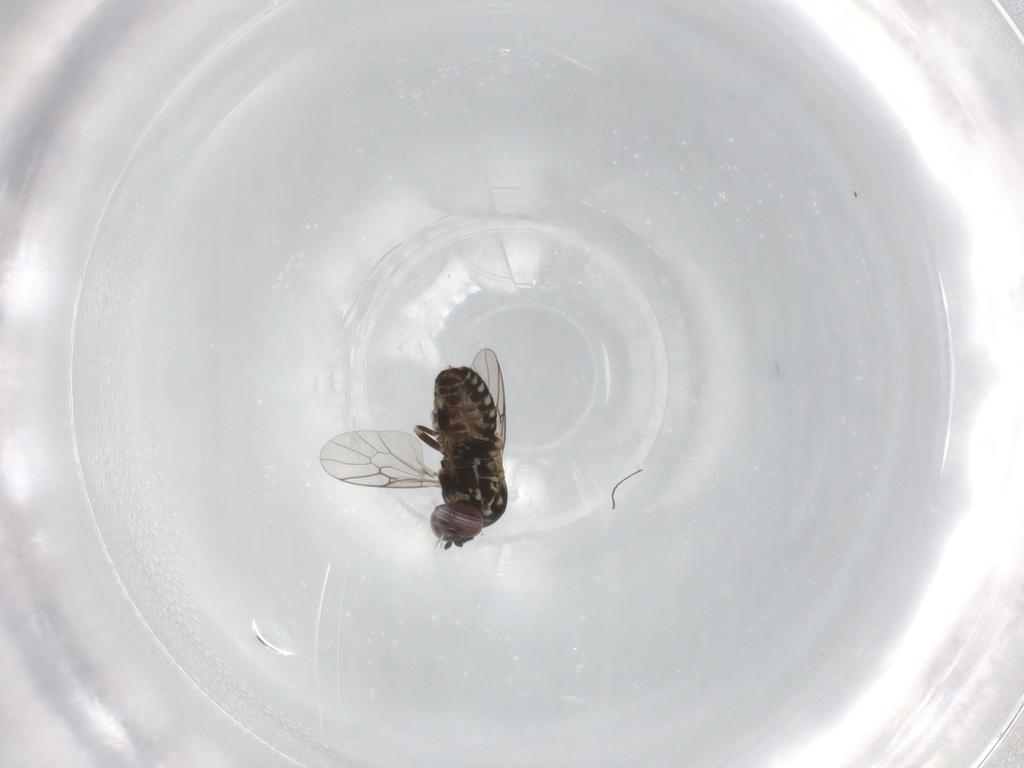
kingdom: Animalia
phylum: Arthropoda
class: Insecta
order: Diptera
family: Bombyliidae
